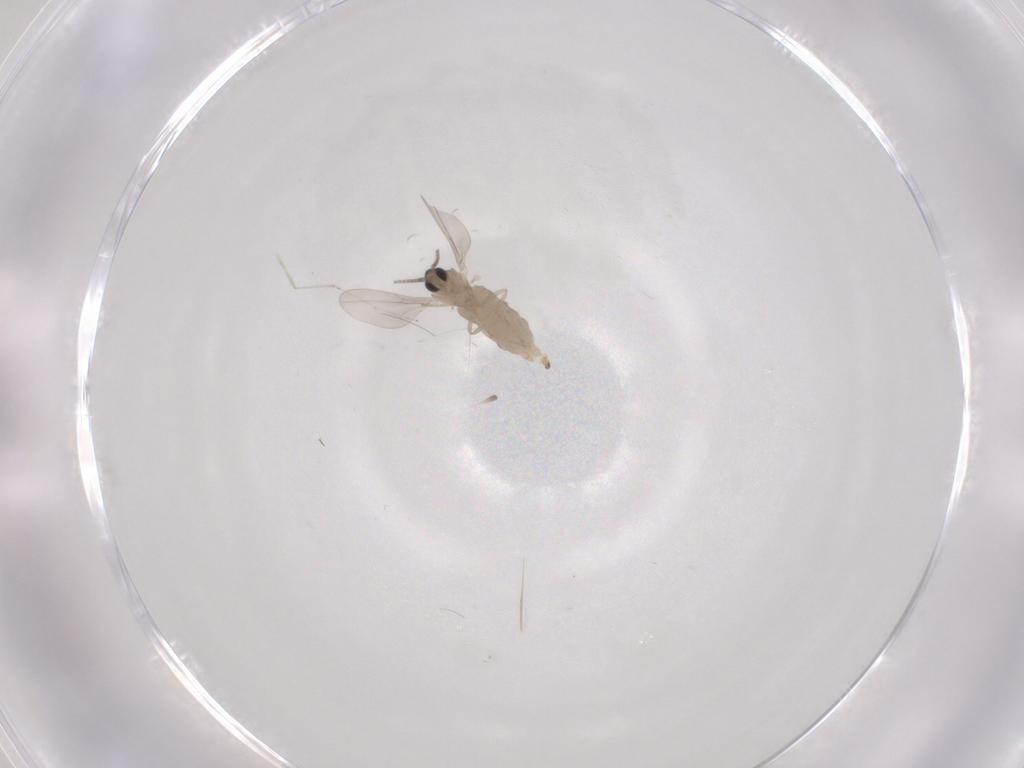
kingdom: Animalia
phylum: Arthropoda
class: Insecta
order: Diptera
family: Cecidomyiidae
